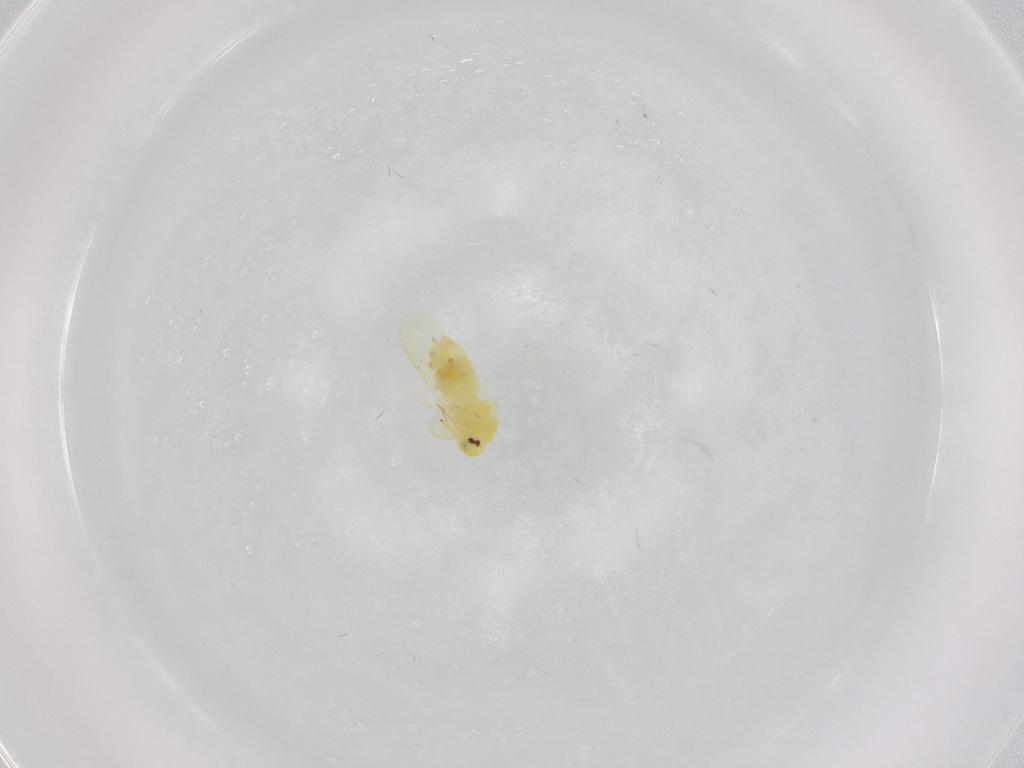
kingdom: Animalia
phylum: Arthropoda
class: Insecta
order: Hemiptera
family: Aleyrodidae
